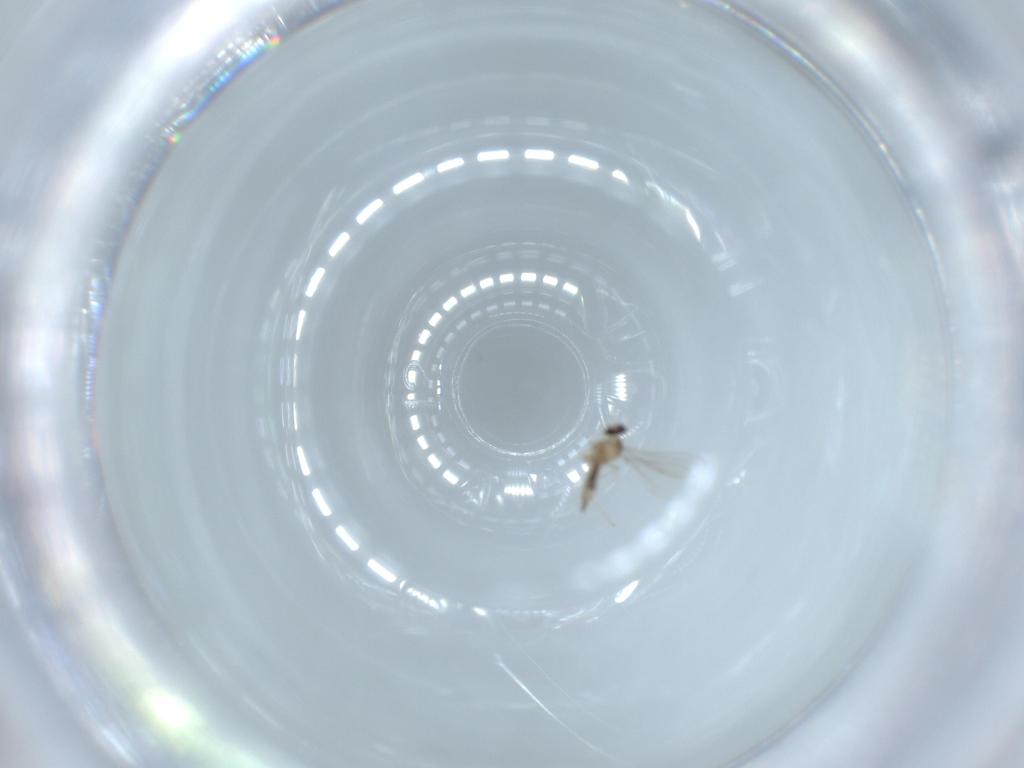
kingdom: Animalia
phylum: Arthropoda
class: Insecta
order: Diptera
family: Cecidomyiidae
